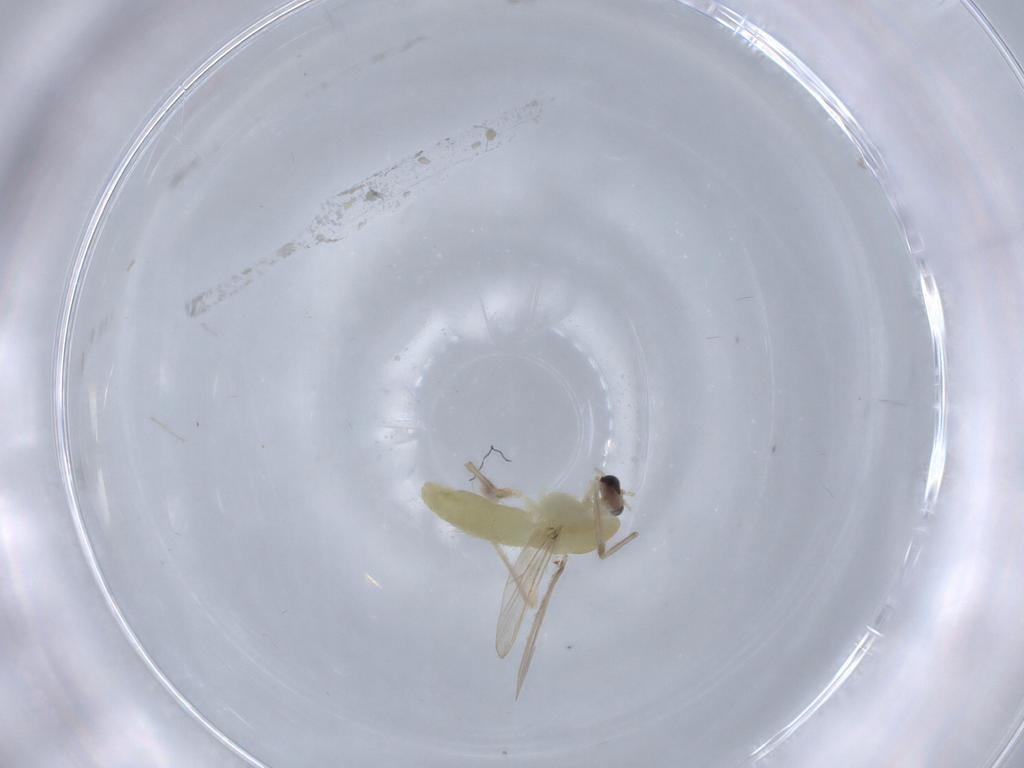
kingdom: Animalia
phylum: Arthropoda
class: Insecta
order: Diptera
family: Chironomidae
